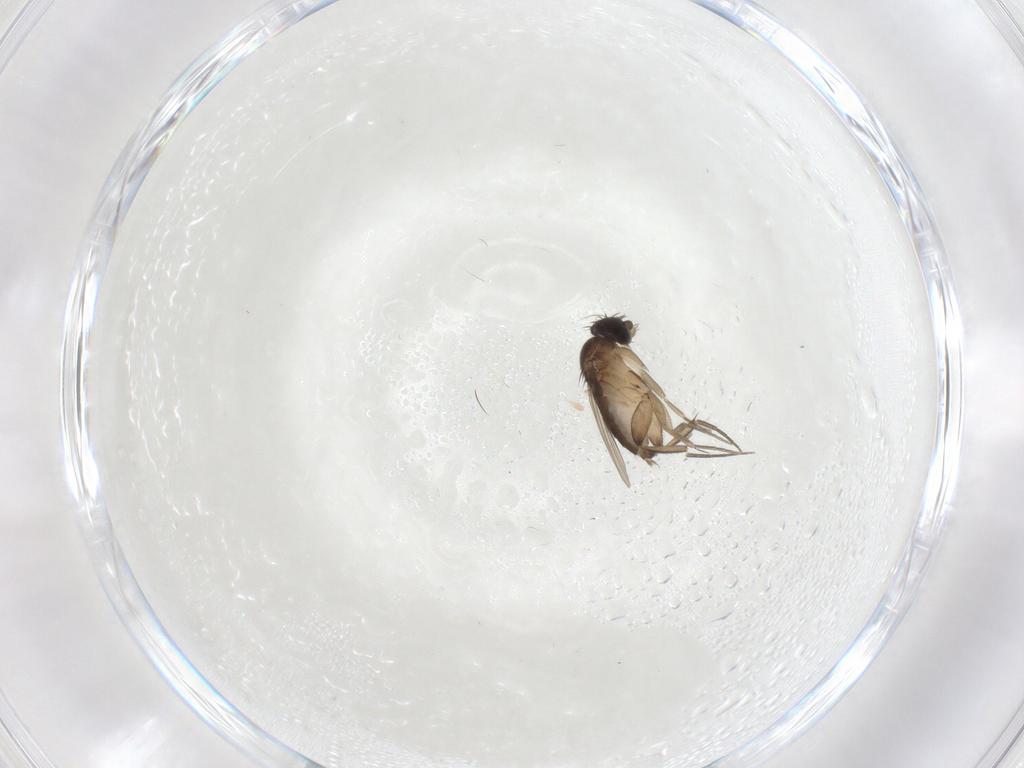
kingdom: Animalia
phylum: Arthropoda
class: Insecta
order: Diptera
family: Phoridae
